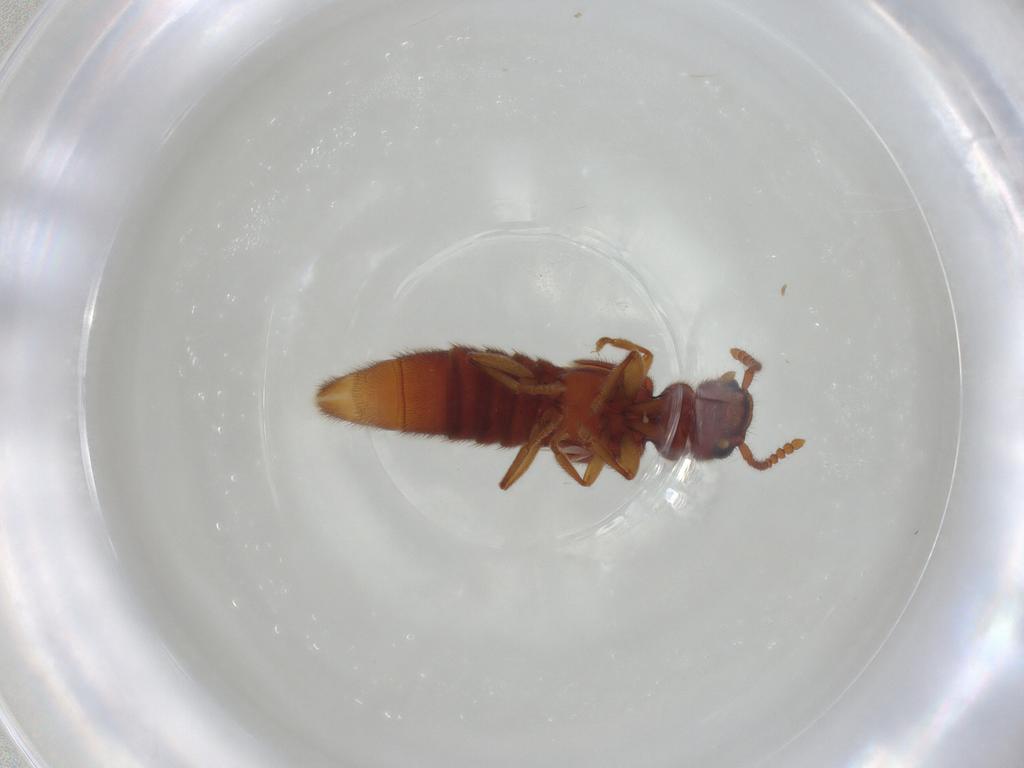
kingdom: Animalia
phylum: Arthropoda
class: Insecta
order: Coleoptera
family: Staphylinidae
